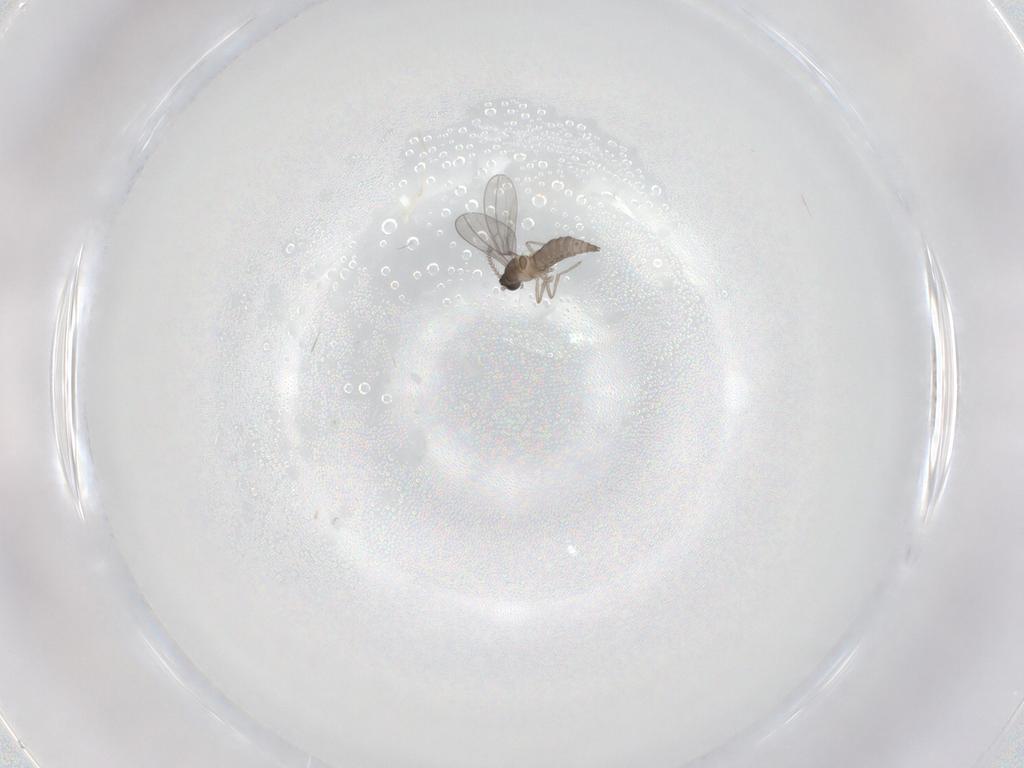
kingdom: Animalia
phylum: Arthropoda
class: Insecta
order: Diptera
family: Cecidomyiidae
